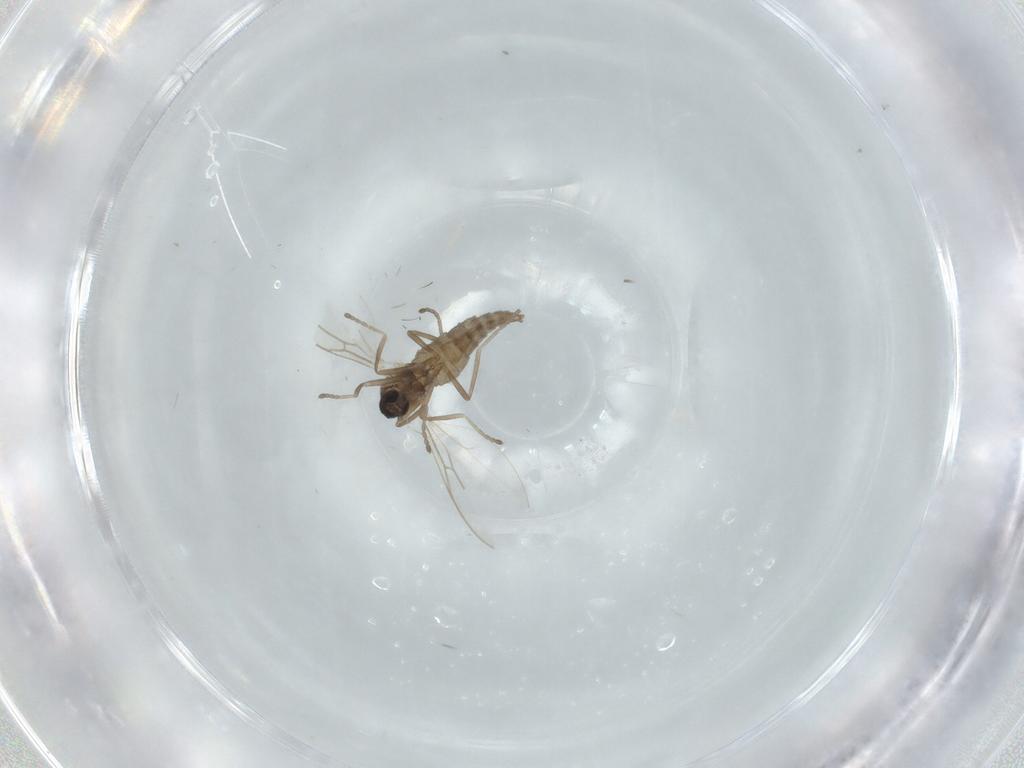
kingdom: Animalia
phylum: Arthropoda
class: Insecta
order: Diptera
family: Cecidomyiidae
